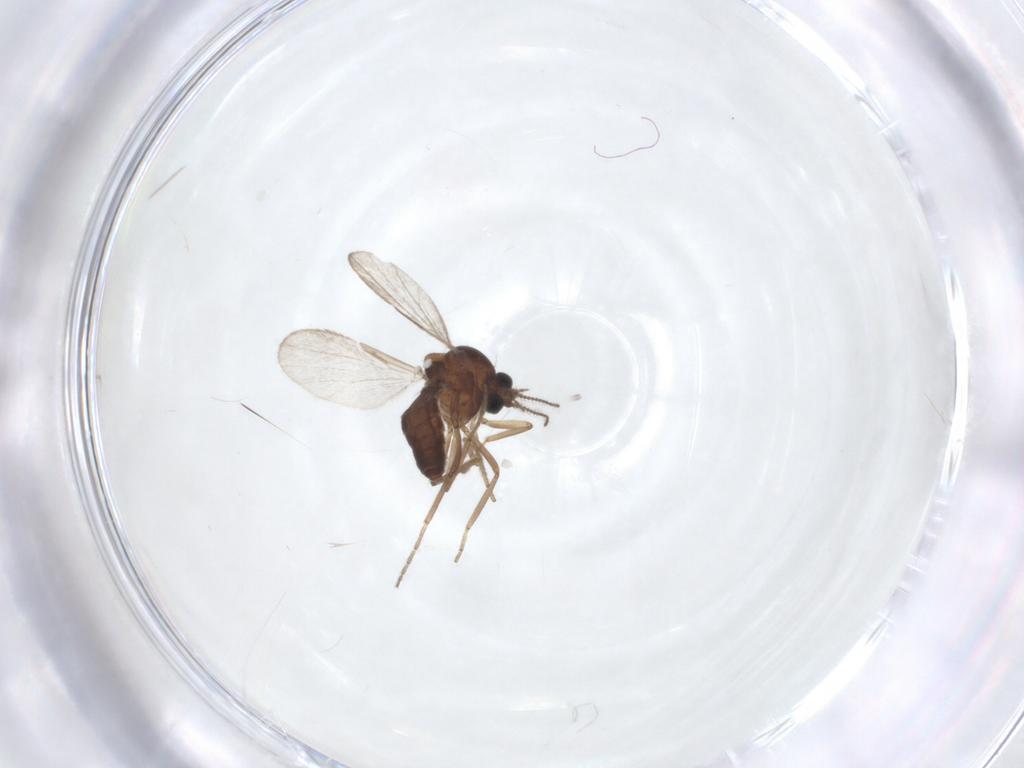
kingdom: Animalia
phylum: Arthropoda
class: Insecta
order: Diptera
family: Ceratopogonidae
